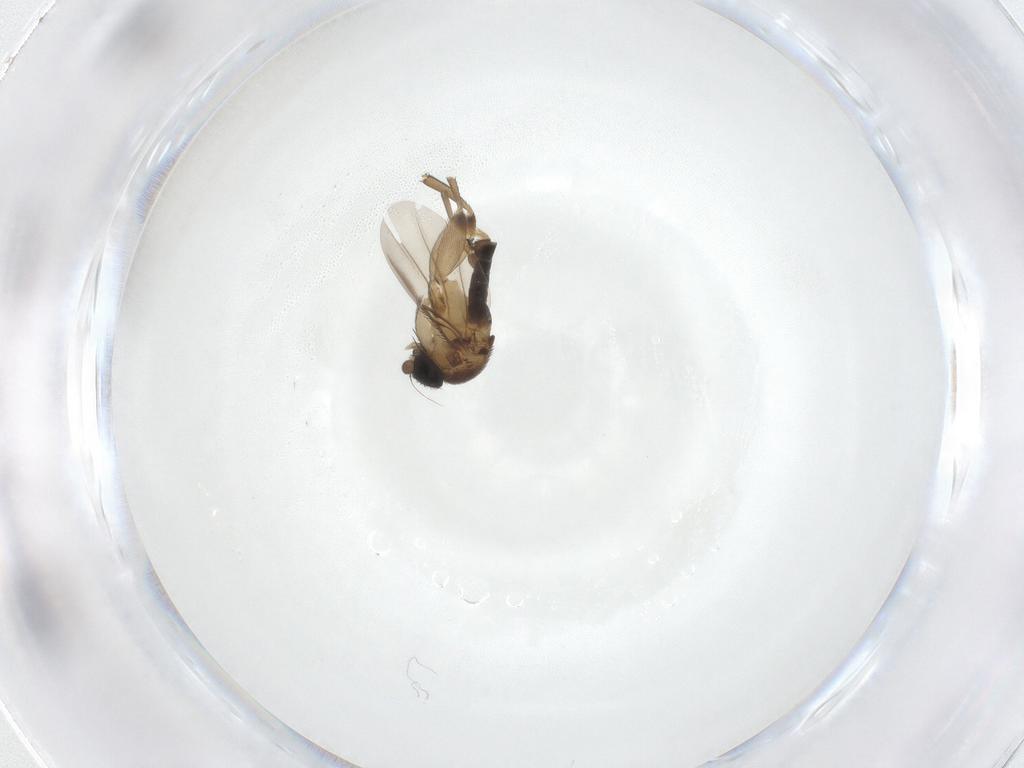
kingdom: Animalia
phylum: Arthropoda
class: Insecta
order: Diptera
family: Phoridae
